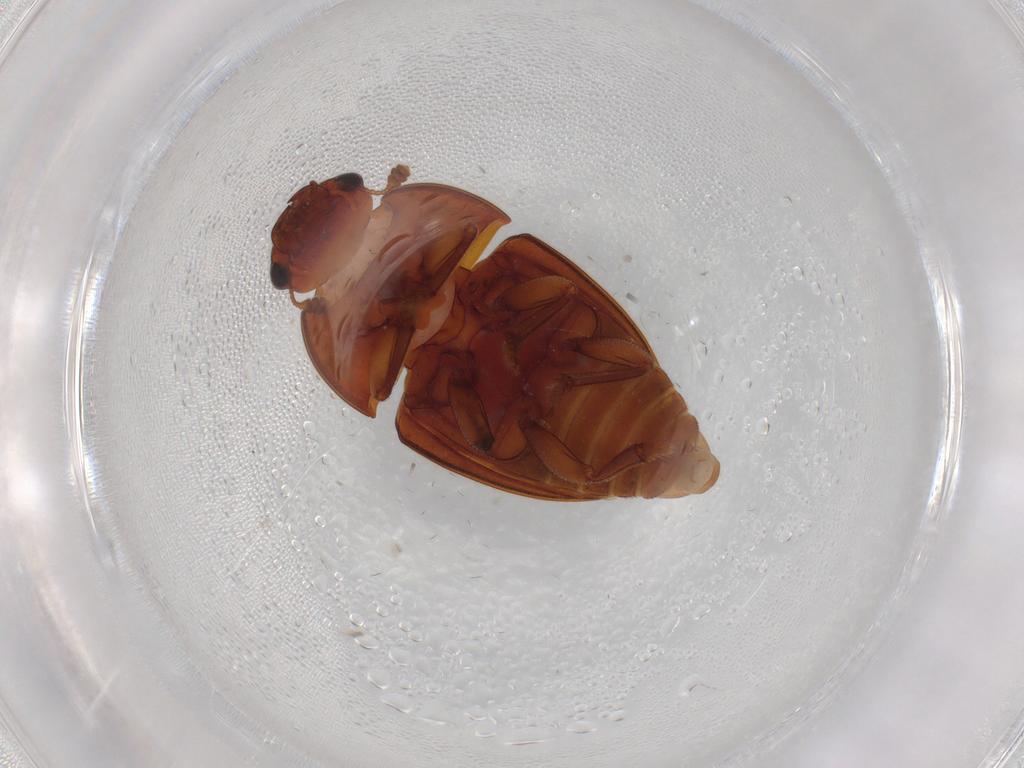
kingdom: Animalia
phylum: Arthropoda
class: Insecta
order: Coleoptera
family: Nitidulidae
